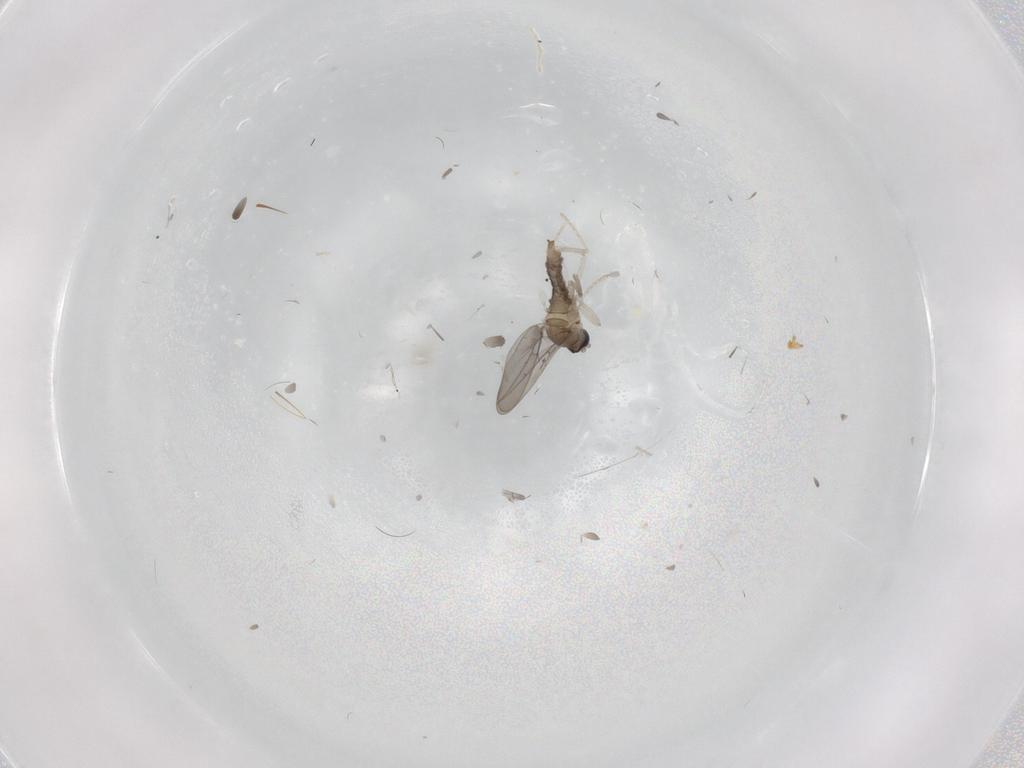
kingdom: Animalia
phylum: Arthropoda
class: Insecta
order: Diptera
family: Cecidomyiidae
